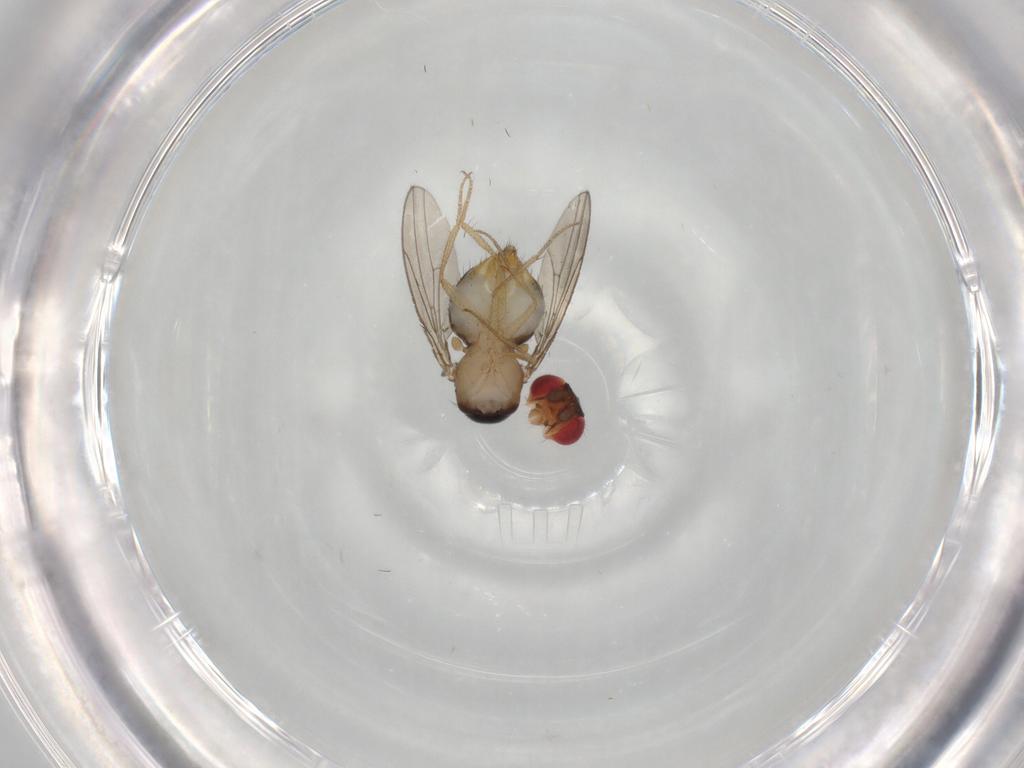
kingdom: Animalia
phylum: Arthropoda
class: Insecta
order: Diptera
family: Drosophilidae
